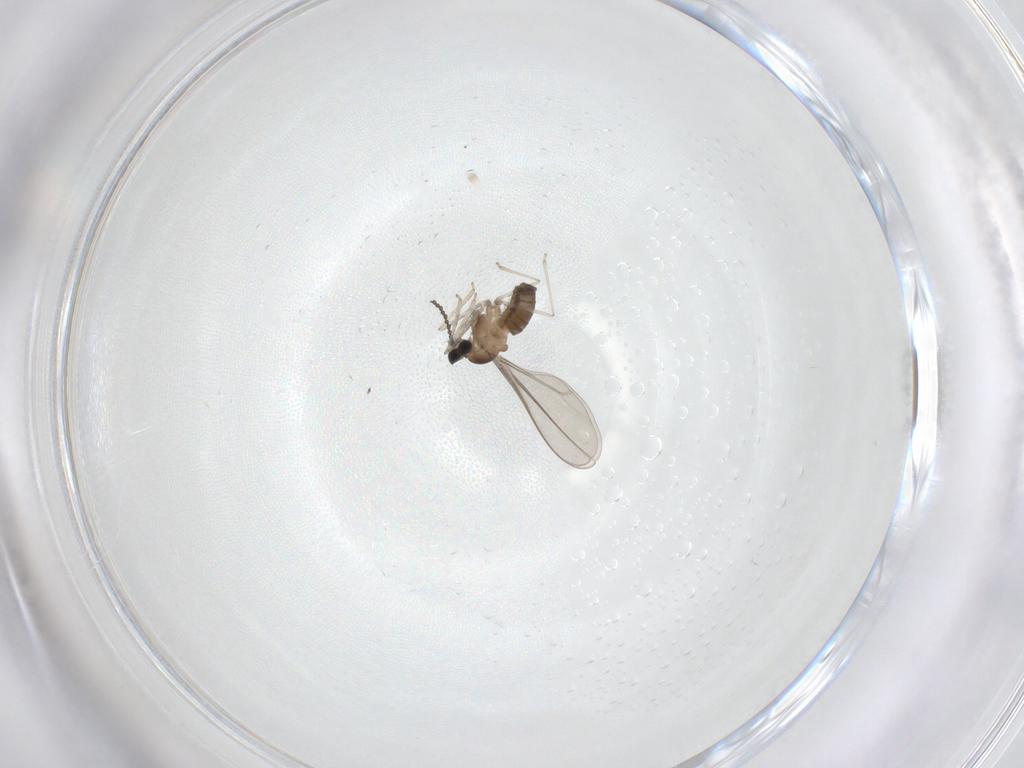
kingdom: Animalia
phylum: Arthropoda
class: Insecta
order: Diptera
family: Cecidomyiidae
